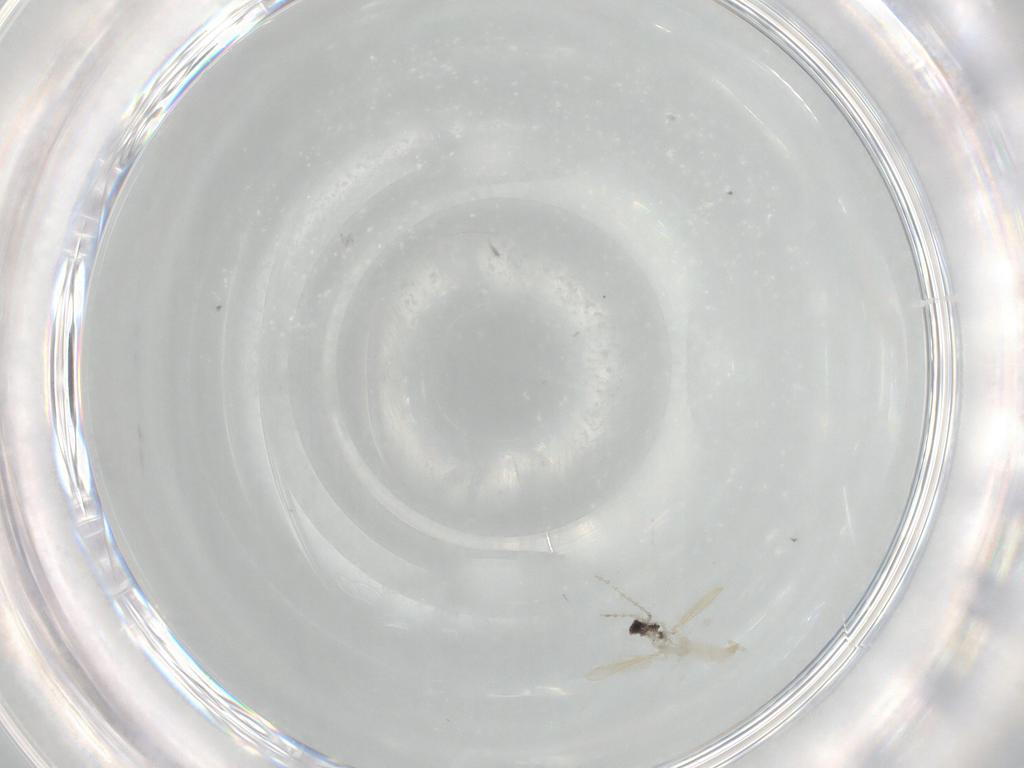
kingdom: Animalia
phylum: Arthropoda
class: Insecta
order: Diptera
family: Cecidomyiidae
